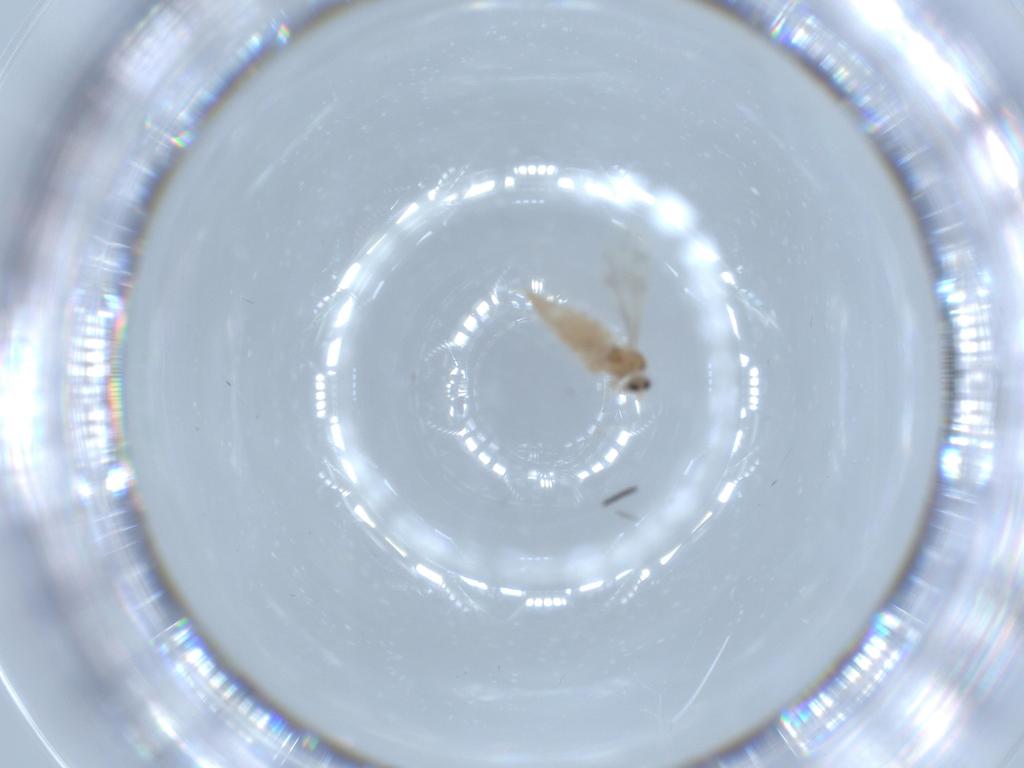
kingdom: Animalia
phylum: Arthropoda
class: Insecta
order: Diptera
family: Sciaridae
